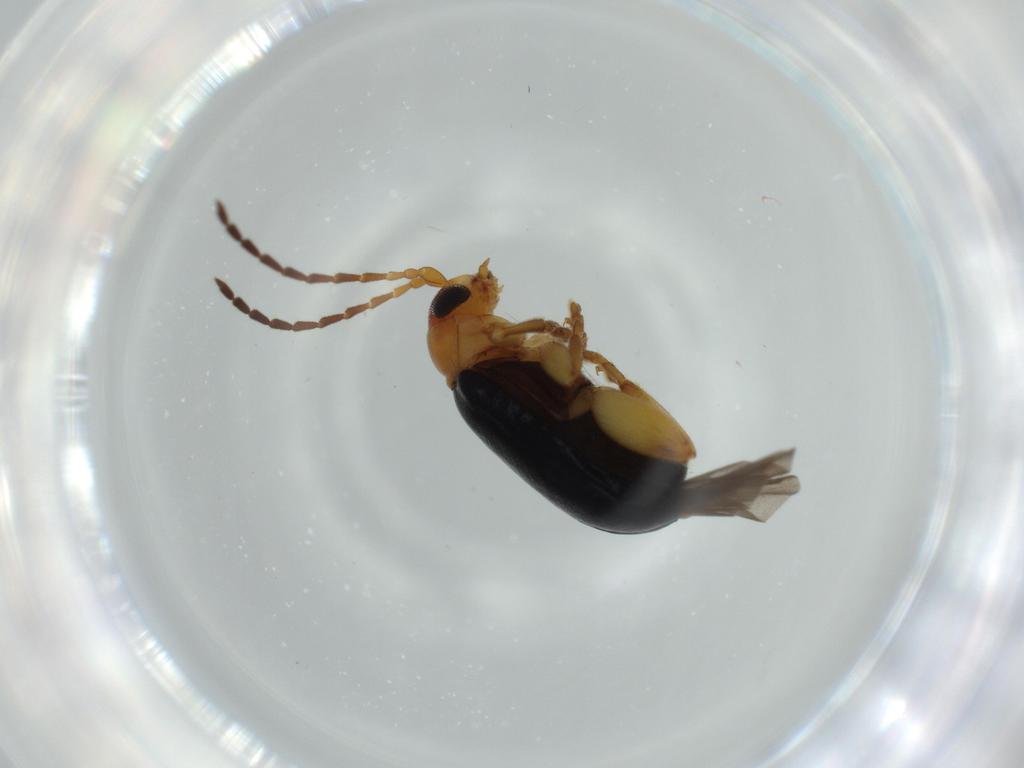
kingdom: Animalia
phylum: Arthropoda
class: Insecta
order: Coleoptera
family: Chrysomelidae
